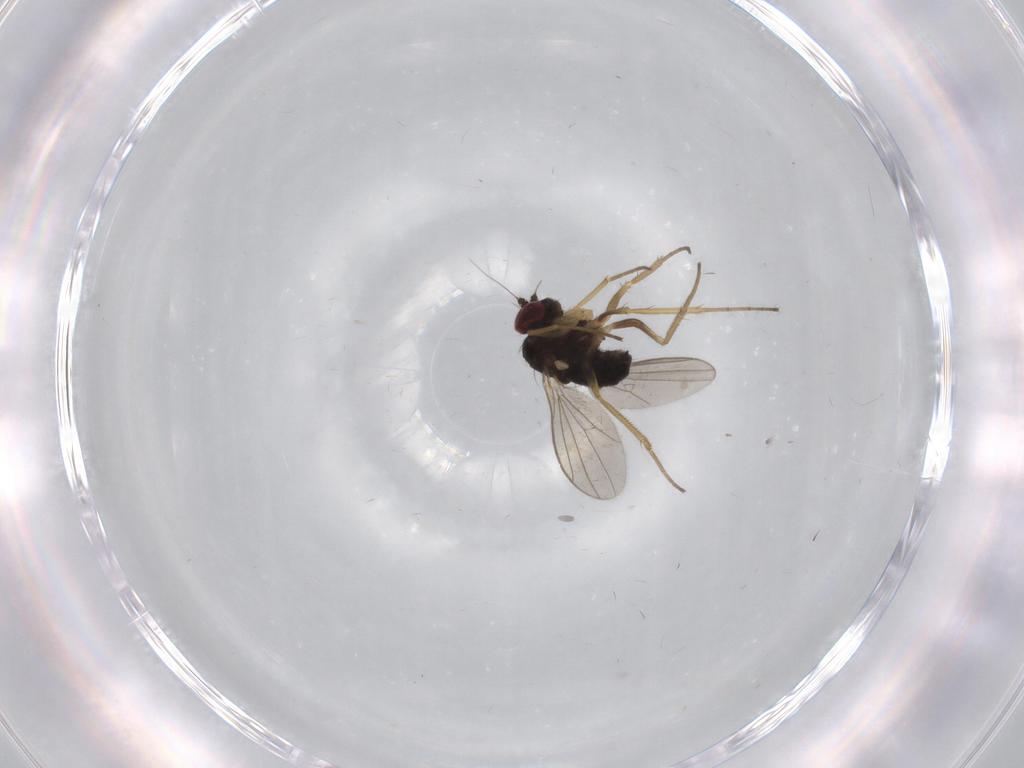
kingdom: Animalia
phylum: Arthropoda
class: Insecta
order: Diptera
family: Dolichopodidae
